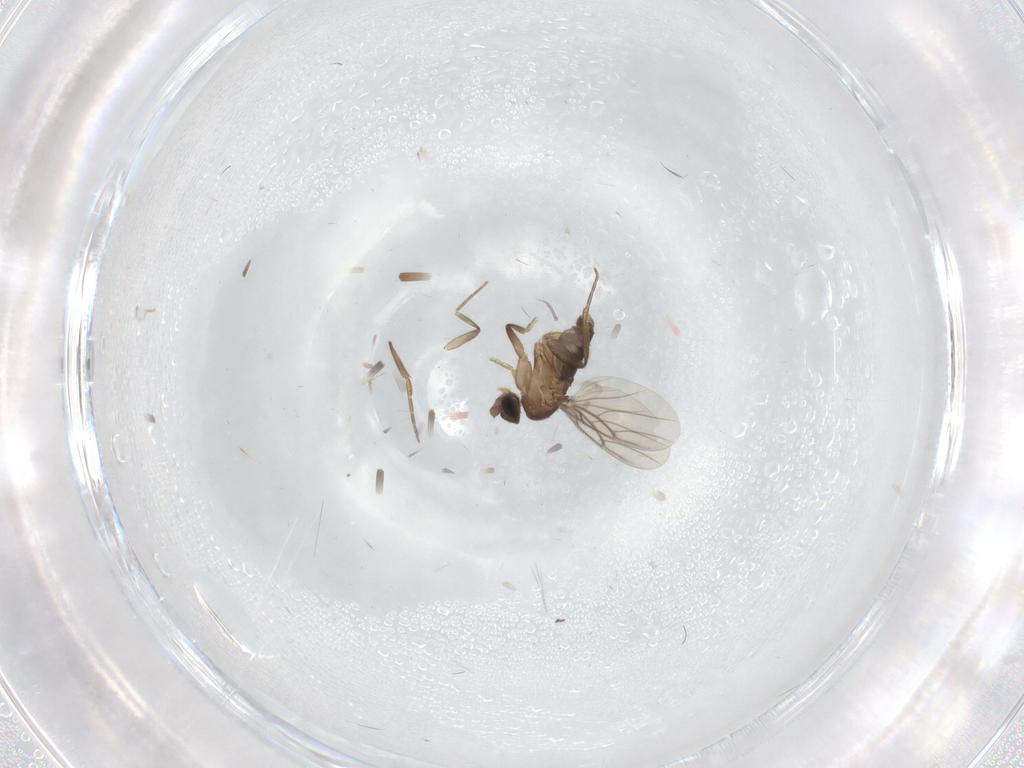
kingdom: Animalia
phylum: Arthropoda
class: Insecta
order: Diptera
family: Phoridae
